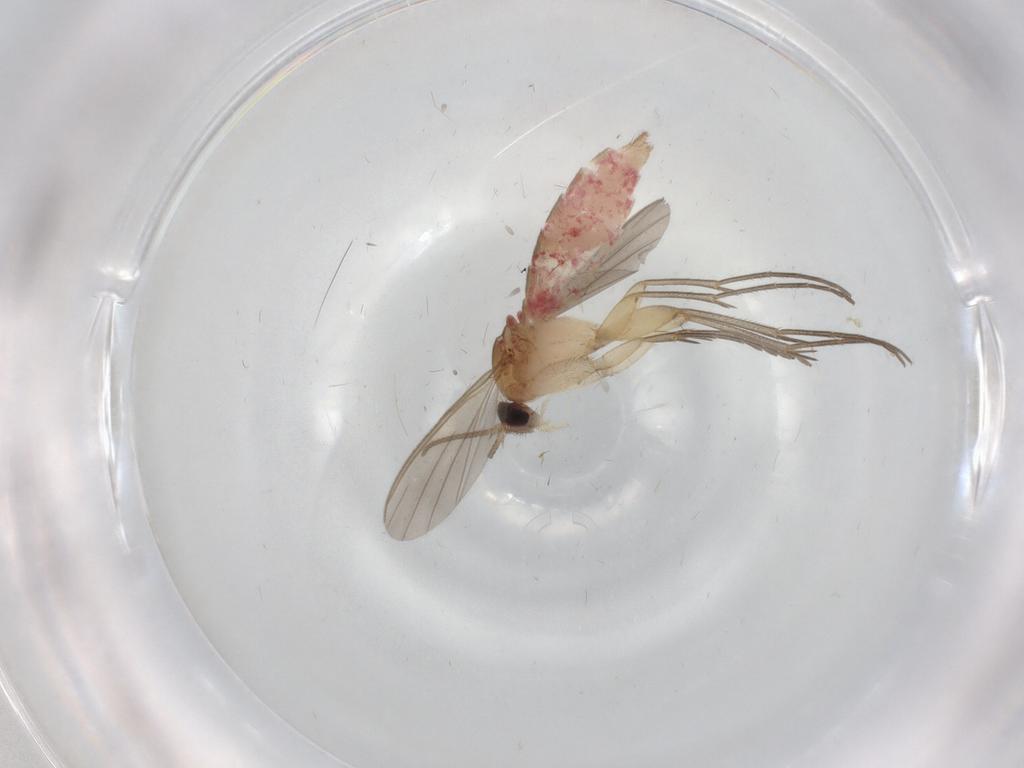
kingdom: Animalia
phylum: Arthropoda
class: Insecta
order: Diptera
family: Mycetophilidae
